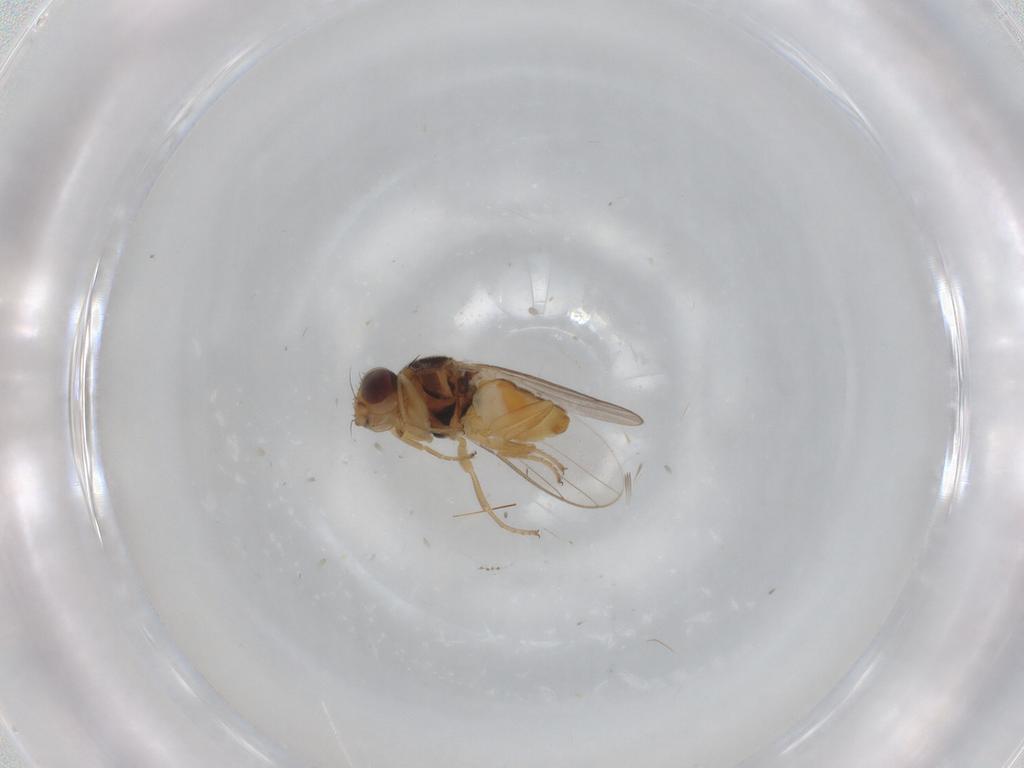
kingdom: Animalia
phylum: Arthropoda
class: Insecta
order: Diptera
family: Chloropidae
